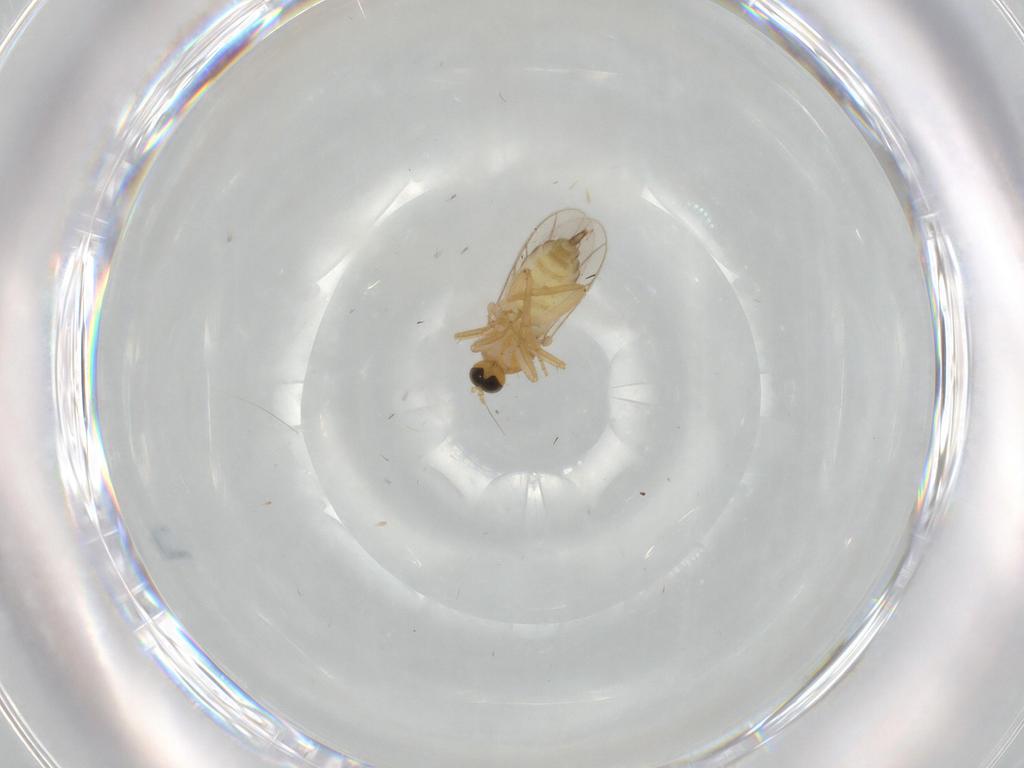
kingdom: Animalia
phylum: Arthropoda
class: Insecta
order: Diptera
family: Hybotidae
